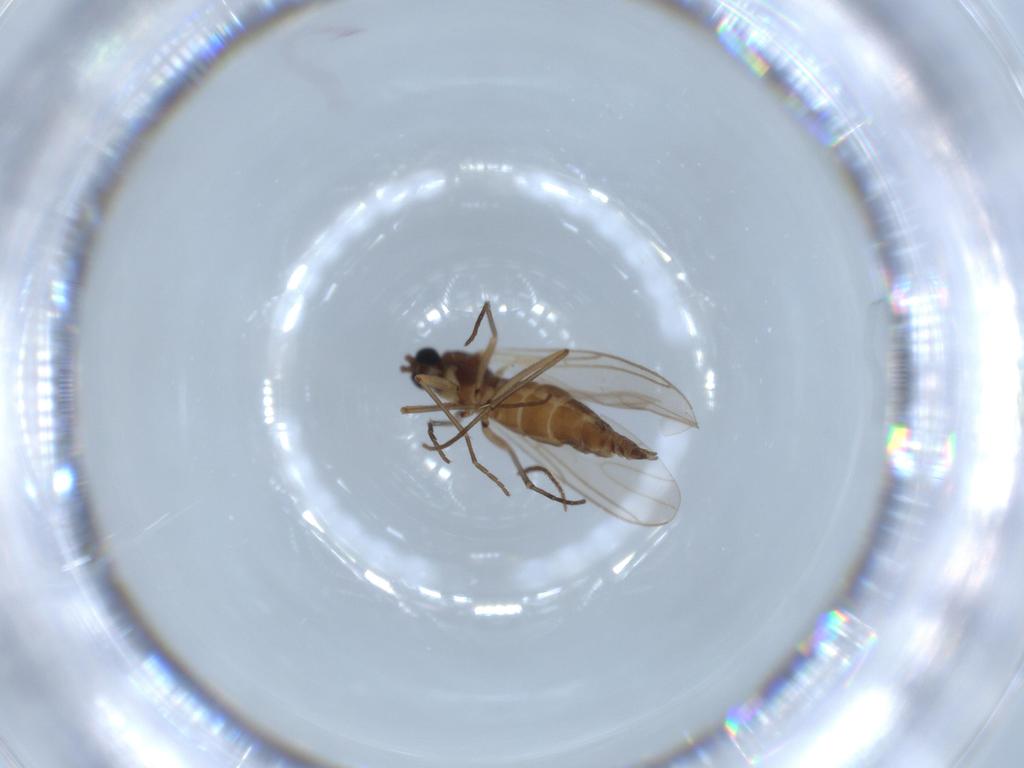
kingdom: Animalia
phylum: Arthropoda
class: Insecta
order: Diptera
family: Sciaridae
